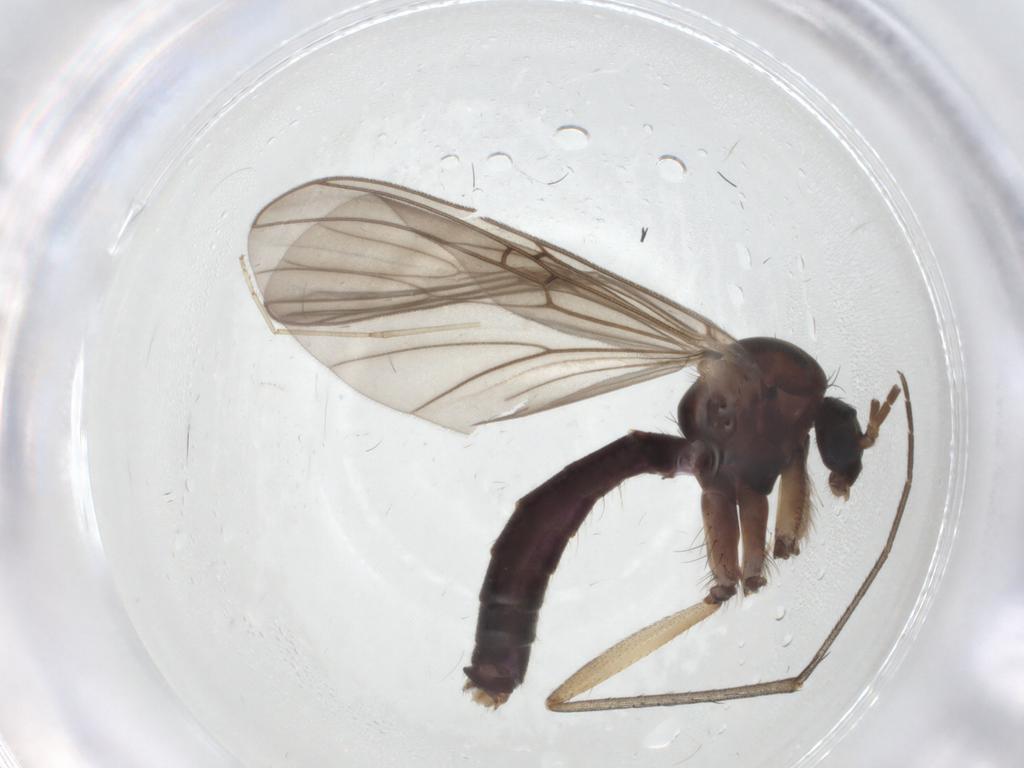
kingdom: Animalia
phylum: Arthropoda
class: Insecta
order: Diptera
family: Mycetophilidae
